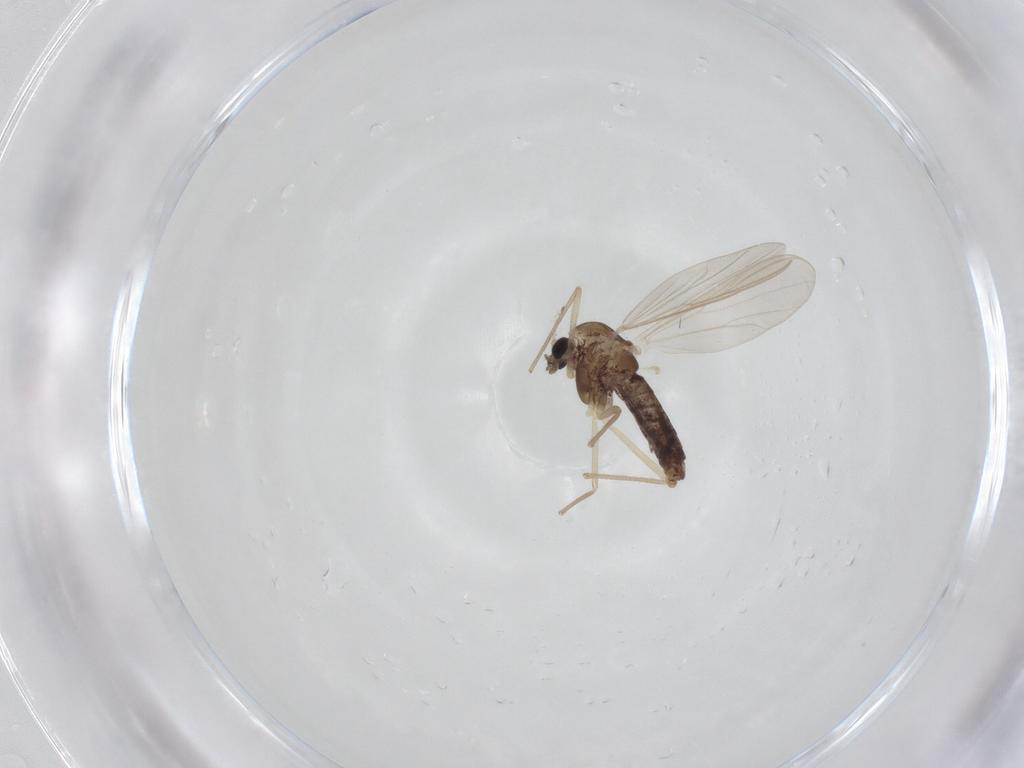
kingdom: Animalia
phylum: Arthropoda
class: Insecta
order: Diptera
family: Chironomidae
